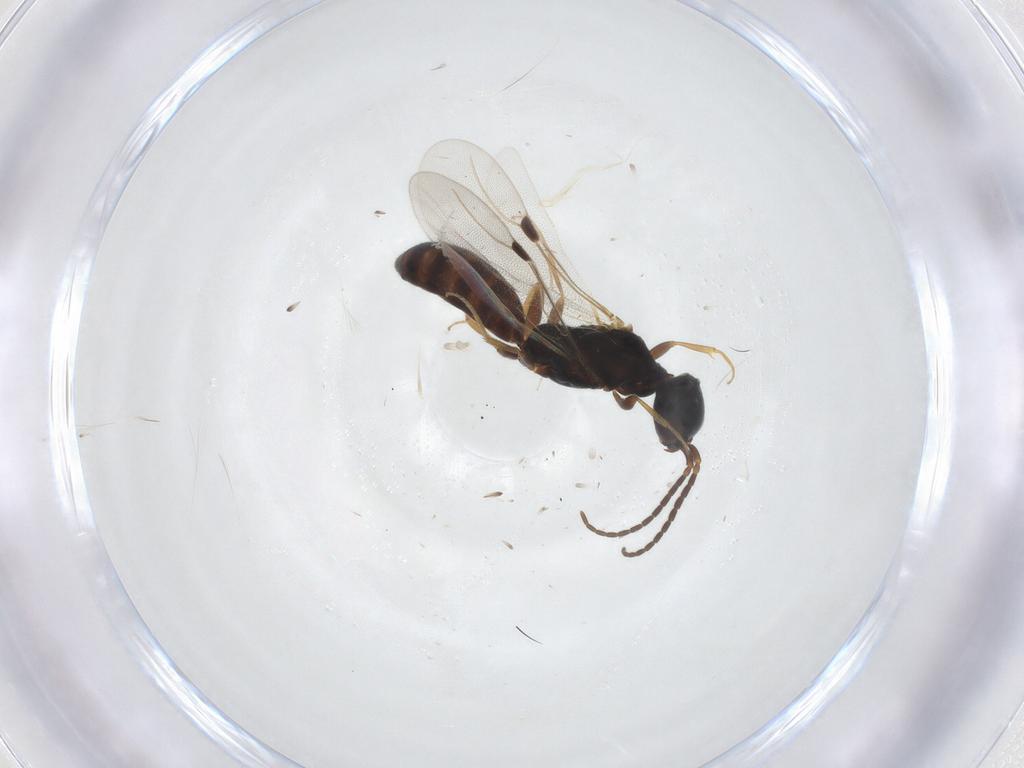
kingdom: Animalia
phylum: Arthropoda
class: Insecta
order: Hymenoptera
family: Bethylidae
